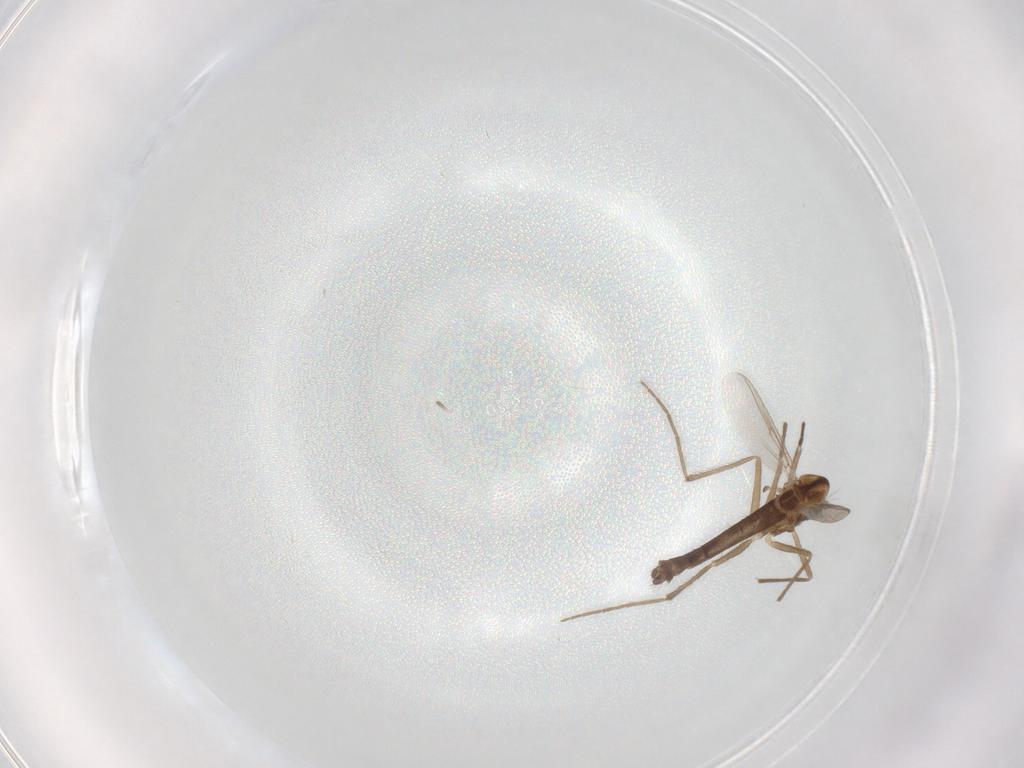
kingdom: Animalia
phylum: Arthropoda
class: Insecta
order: Diptera
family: Chironomidae
